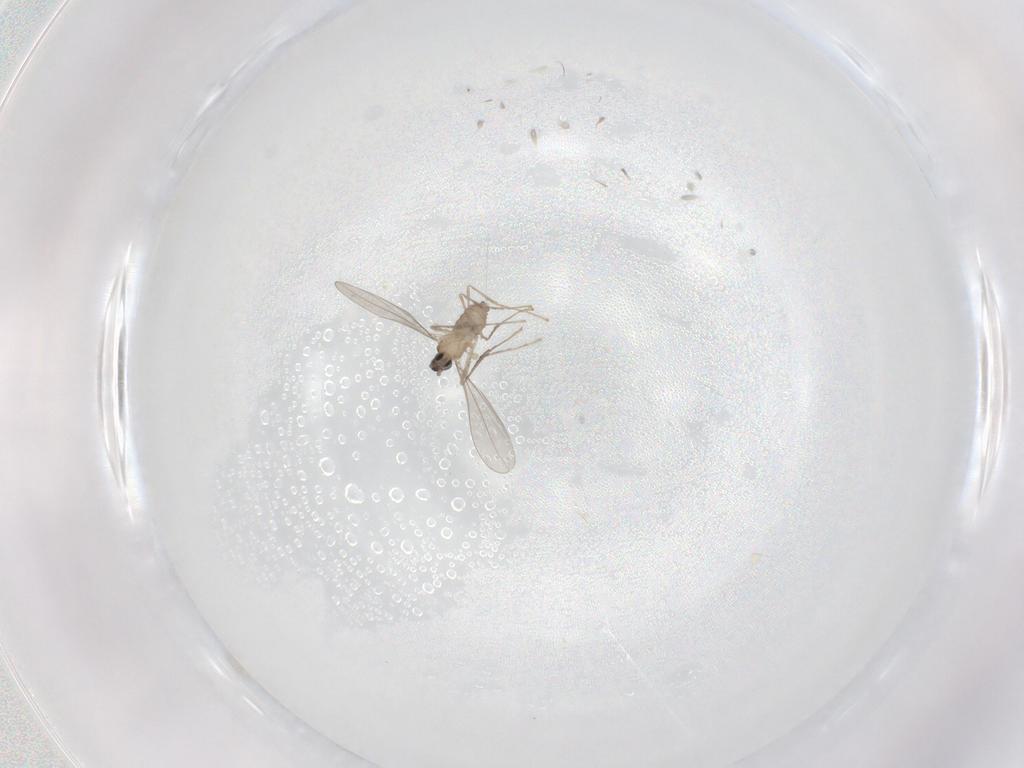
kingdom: Animalia
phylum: Arthropoda
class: Insecta
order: Diptera
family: Cecidomyiidae
